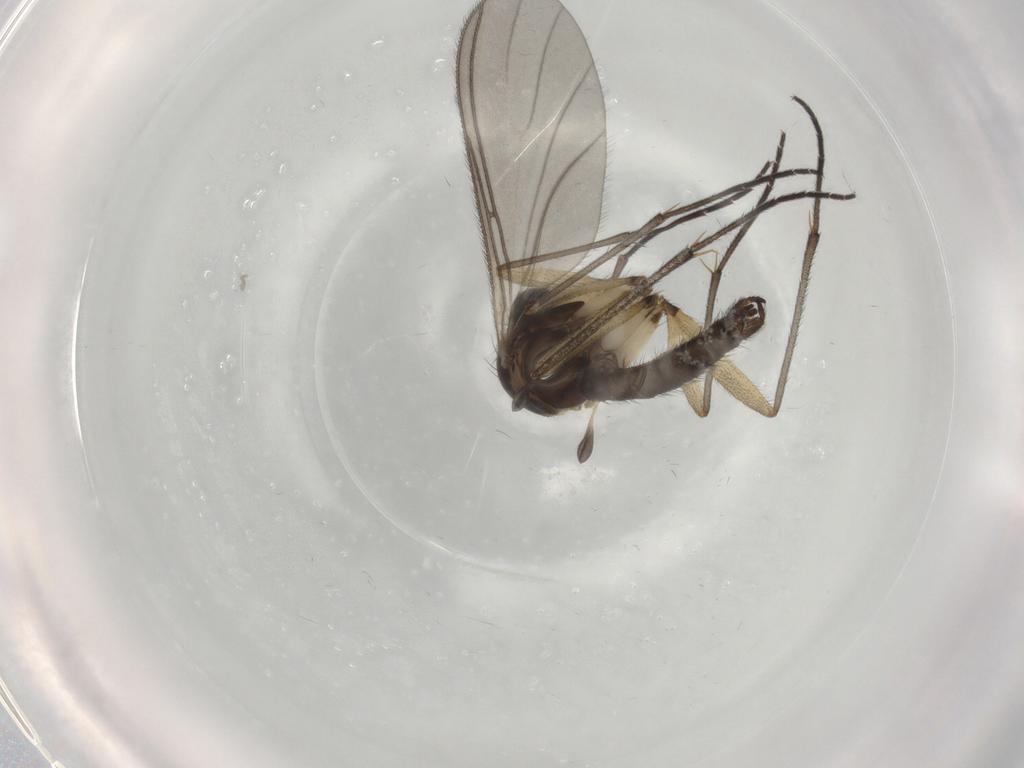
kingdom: Animalia
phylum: Arthropoda
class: Insecta
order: Diptera
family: Sciaridae
